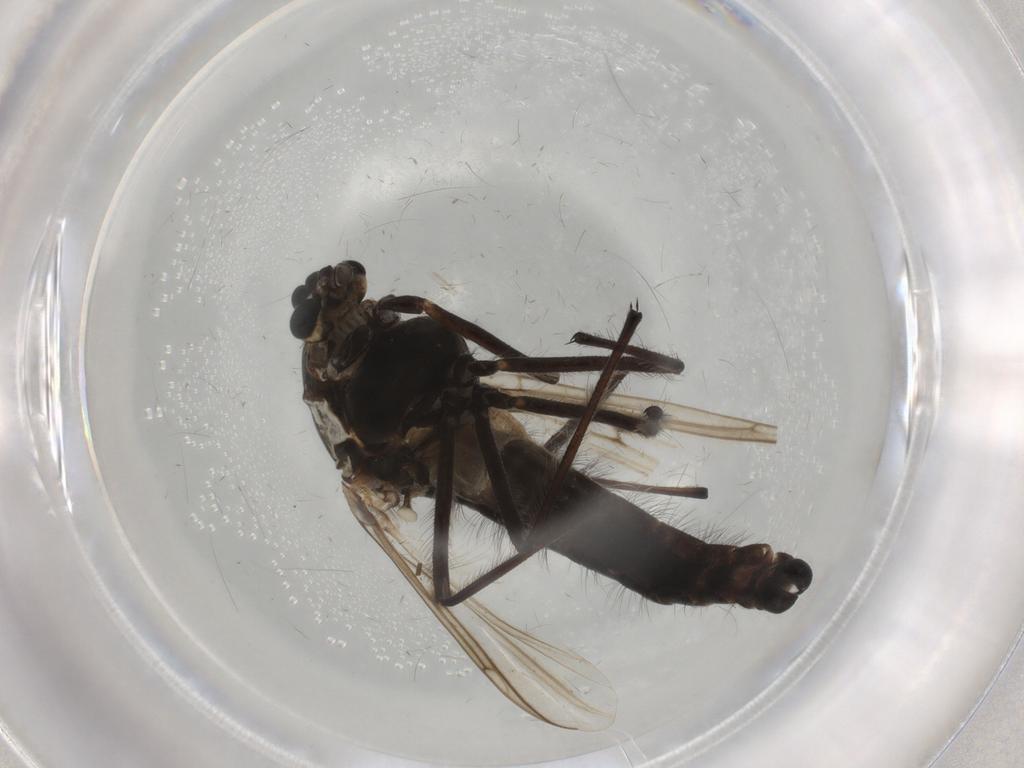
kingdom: Animalia
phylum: Arthropoda
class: Insecta
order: Diptera
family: Chironomidae
